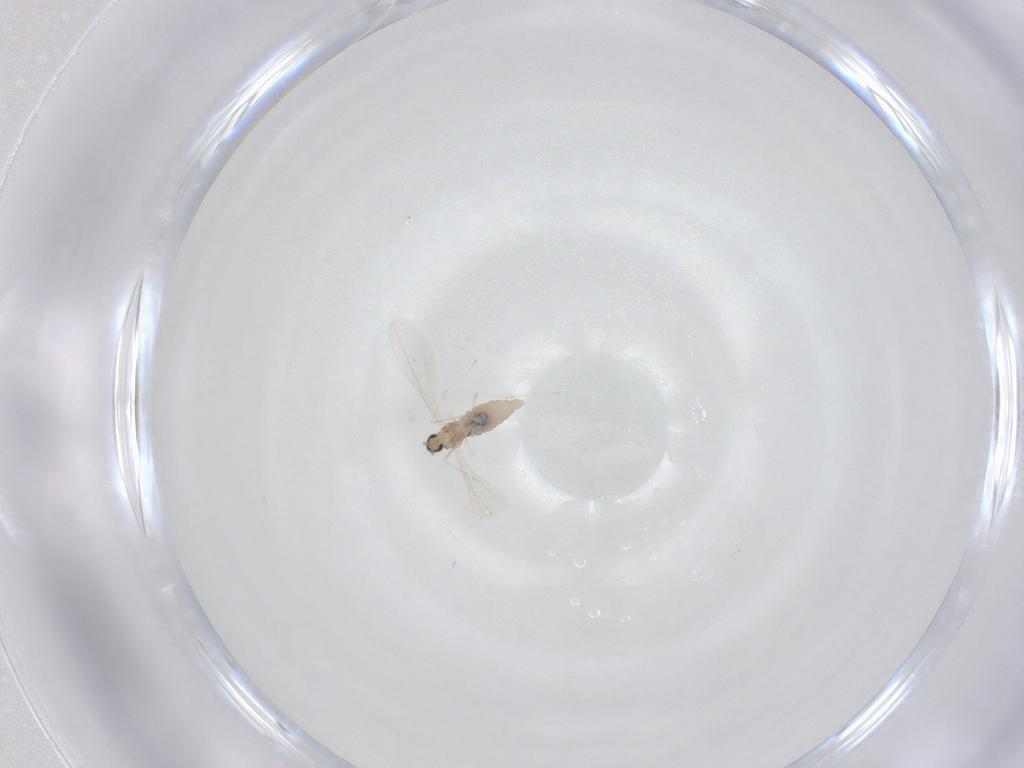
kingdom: Animalia
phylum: Arthropoda
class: Insecta
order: Diptera
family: Cecidomyiidae
